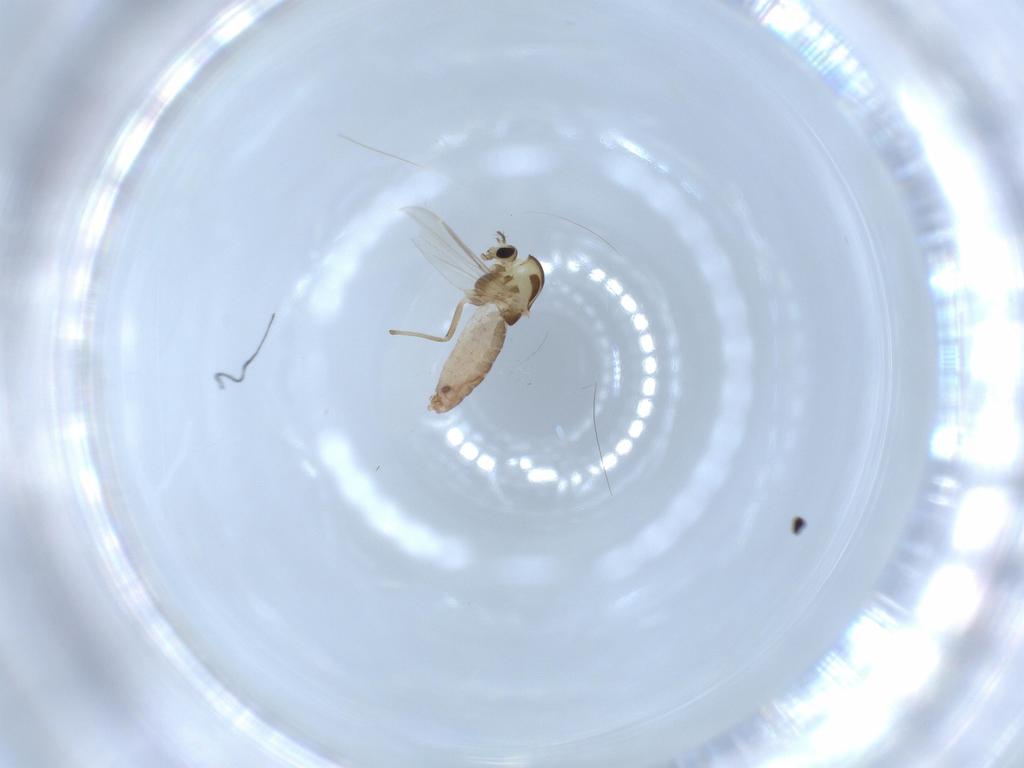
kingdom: Animalia
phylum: Arthropoda
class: Insecta
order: Diptera
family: Chironomidae
